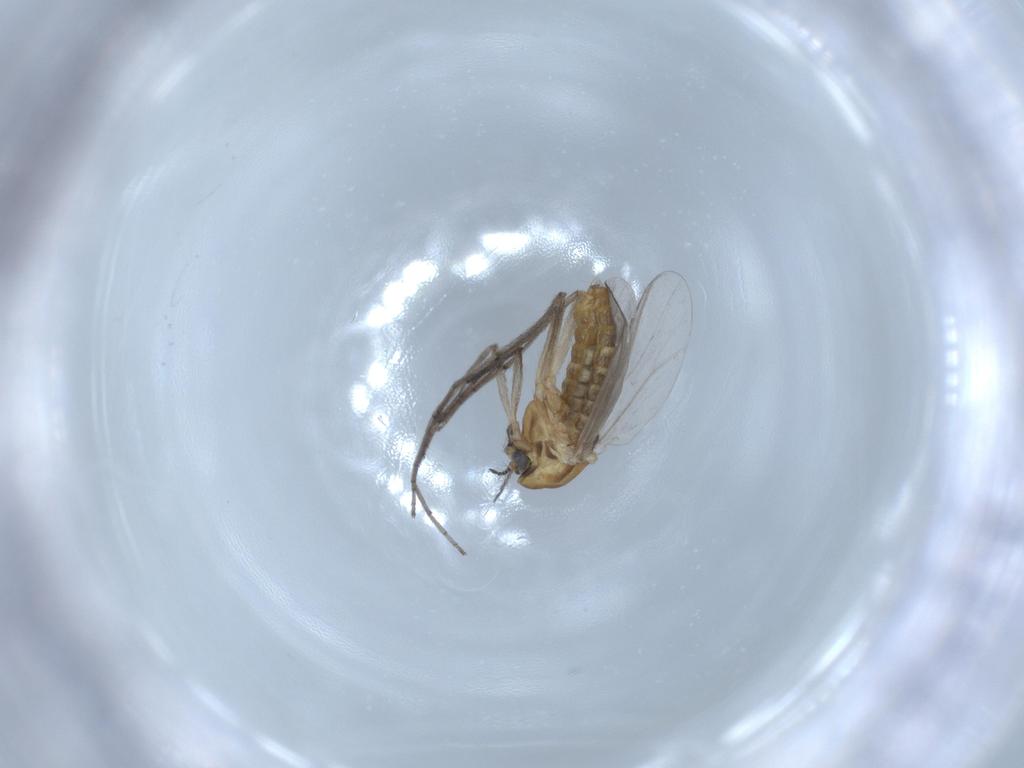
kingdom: Animalia
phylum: Arthropoda
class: Insecta
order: Diptera
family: Chironomidae
